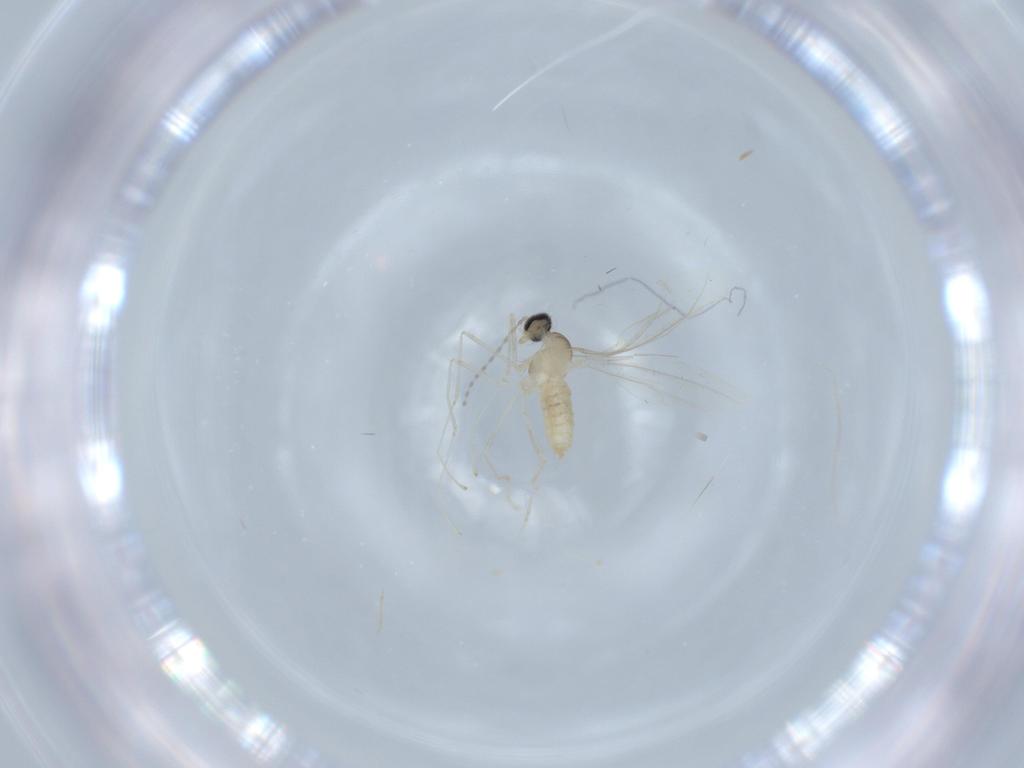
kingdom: Animalia
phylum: Arthropoda
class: Insecta
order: Diptera
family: Cecidomyiidae
